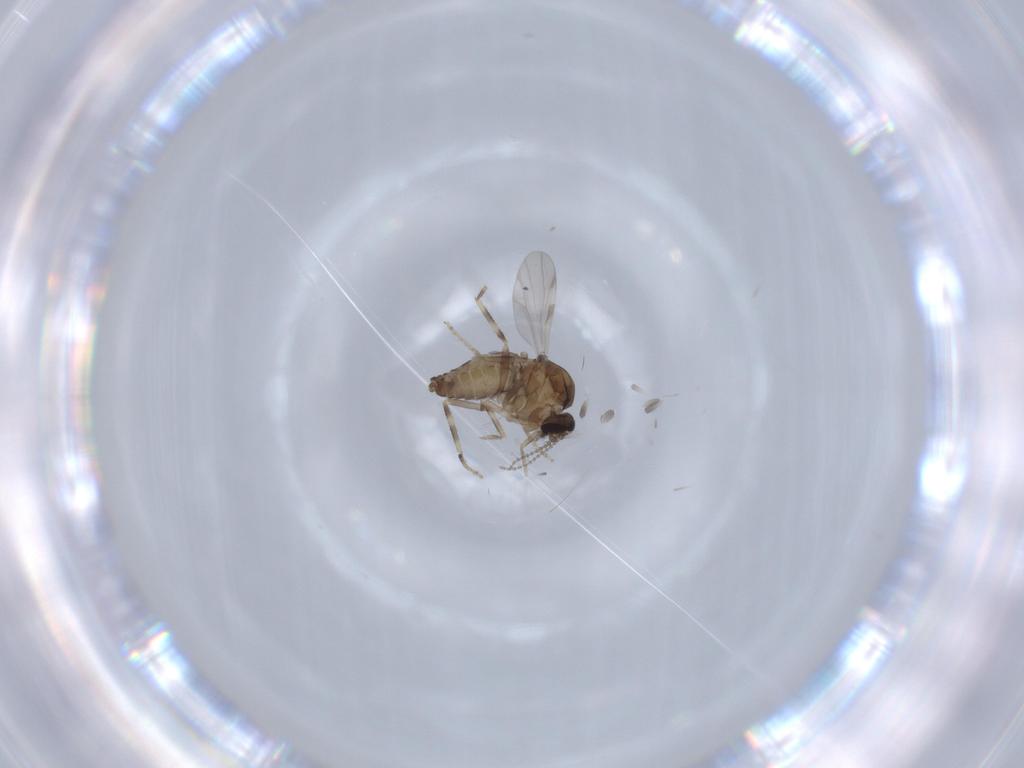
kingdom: Animalia
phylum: Arthropoda
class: Insecta
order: Diptera
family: Ceratopogonidae
